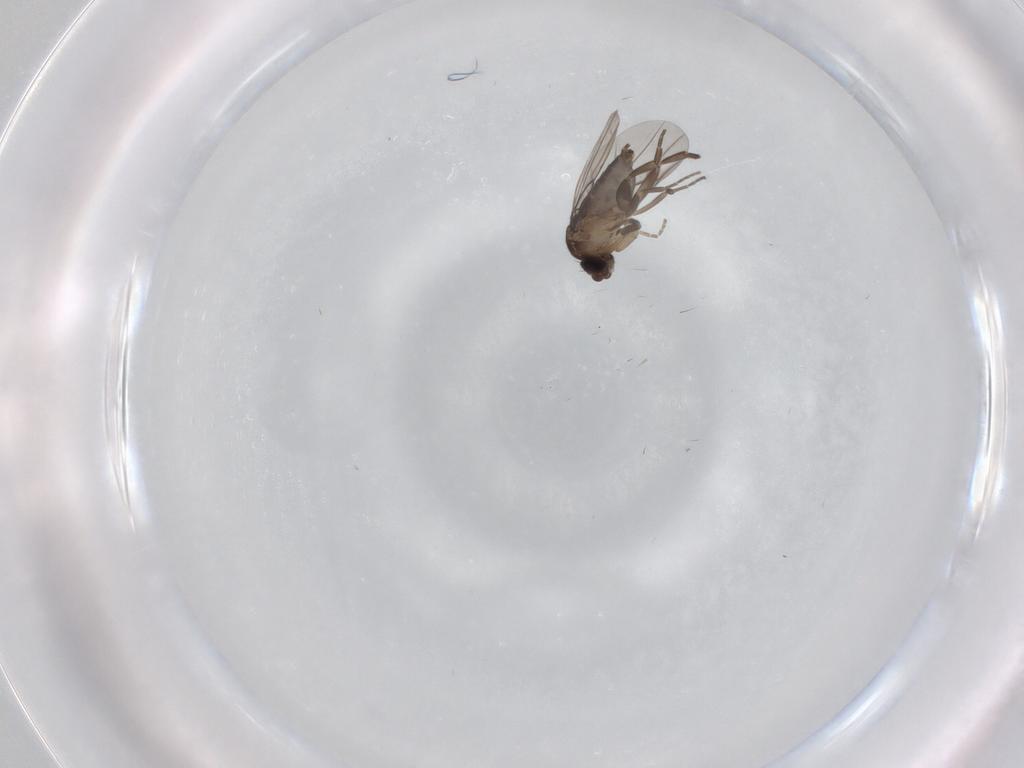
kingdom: Animalia
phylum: Arthropoda
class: Insecta
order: Diptera
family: Phoridae
